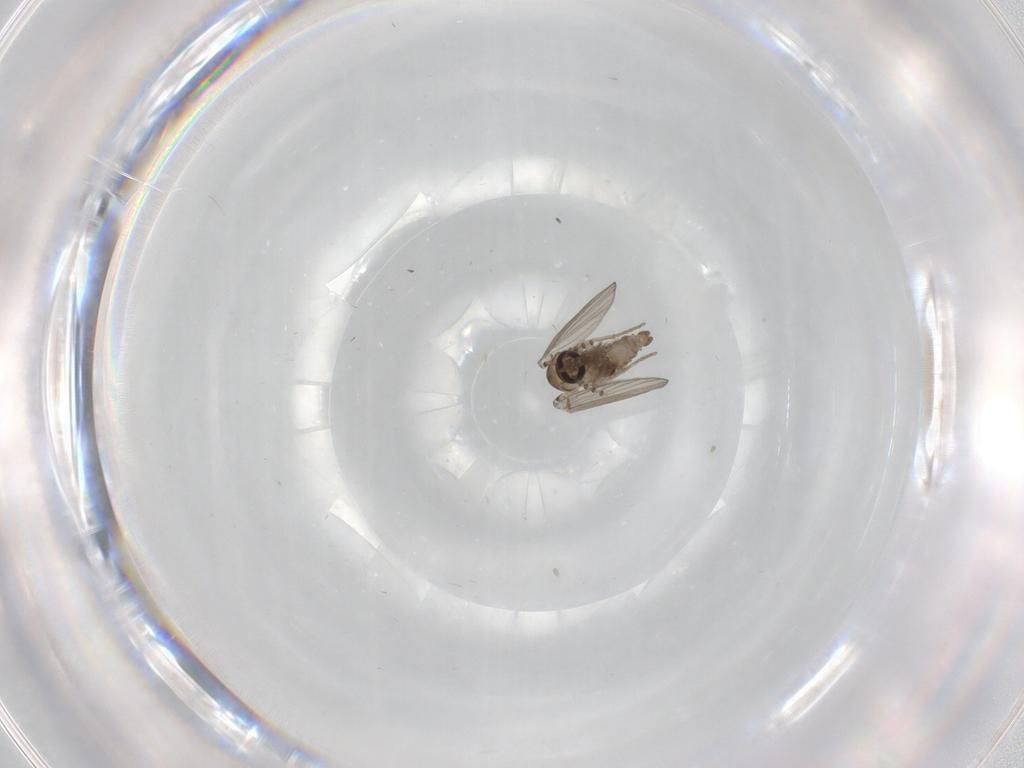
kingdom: Animalia
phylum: Arthropoda
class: Insecta
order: Diptera
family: Psychodidae
